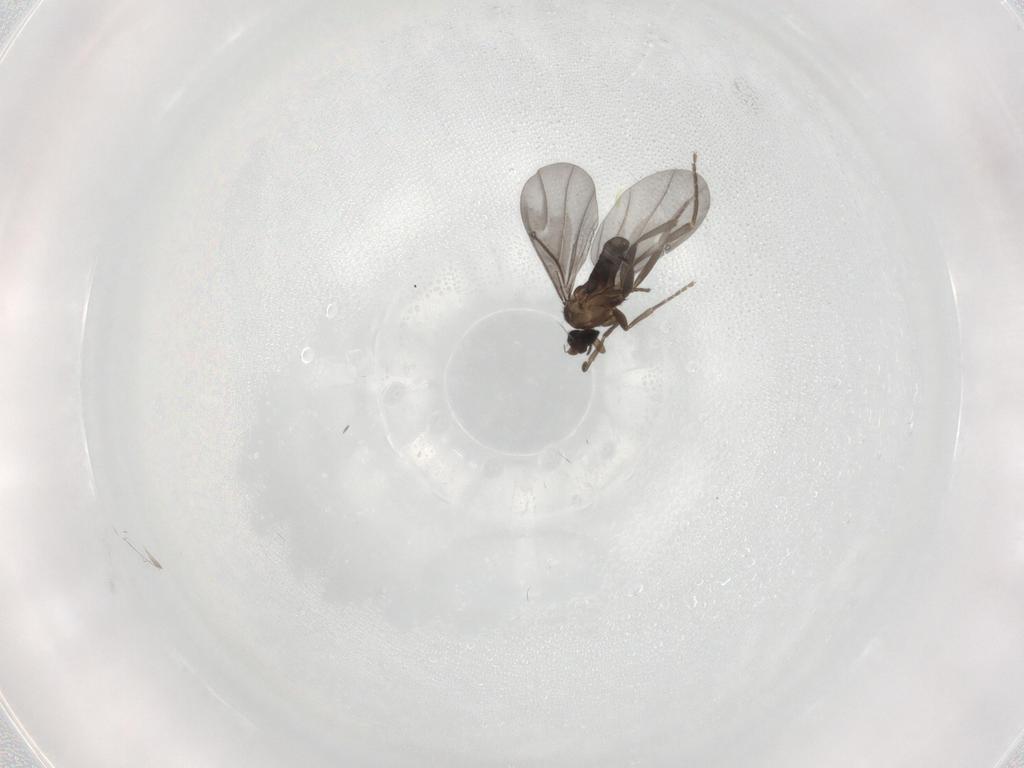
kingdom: Animalia
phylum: Arthropoda
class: Insecta
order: Diptera
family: Phoridae
